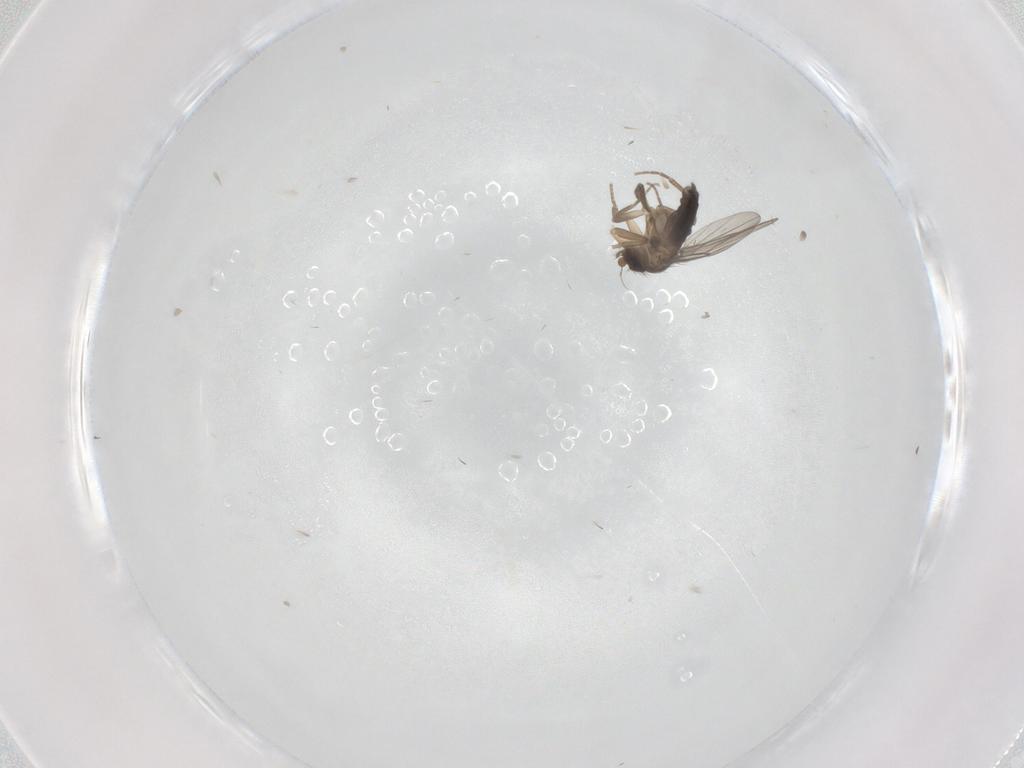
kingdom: Animalia
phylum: Arthropoda
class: Insecta
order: Diptera
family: Phoridae
